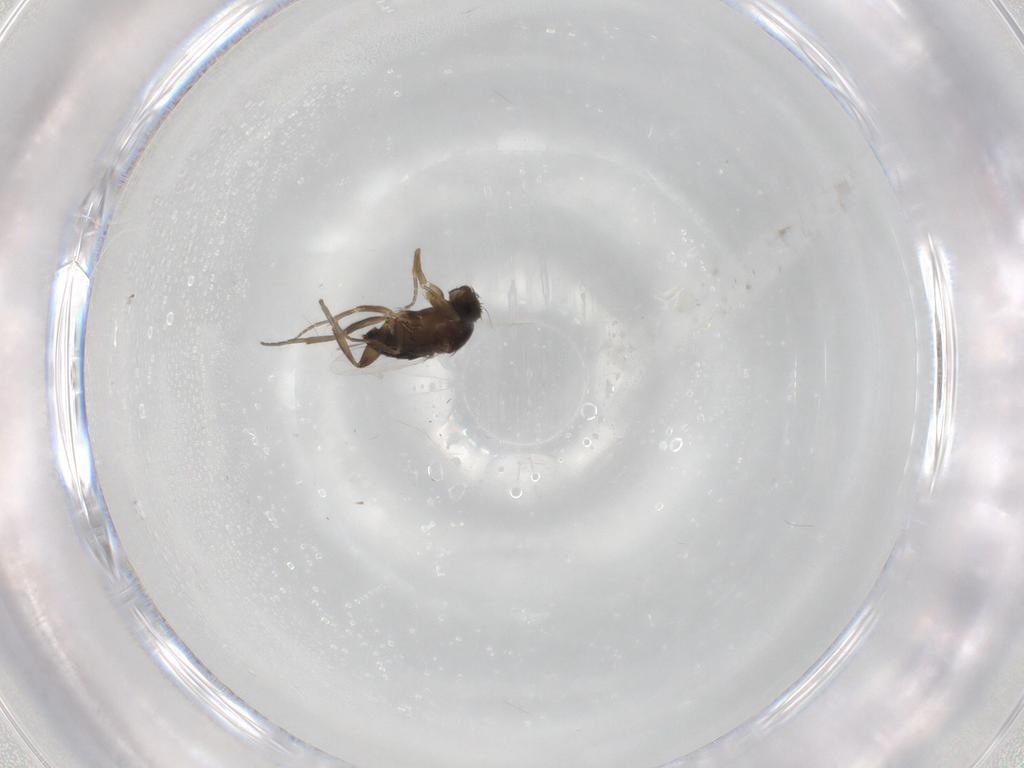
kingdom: Animalia
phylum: Arthropoda
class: Insecta
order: Diptera
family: Phoridae
